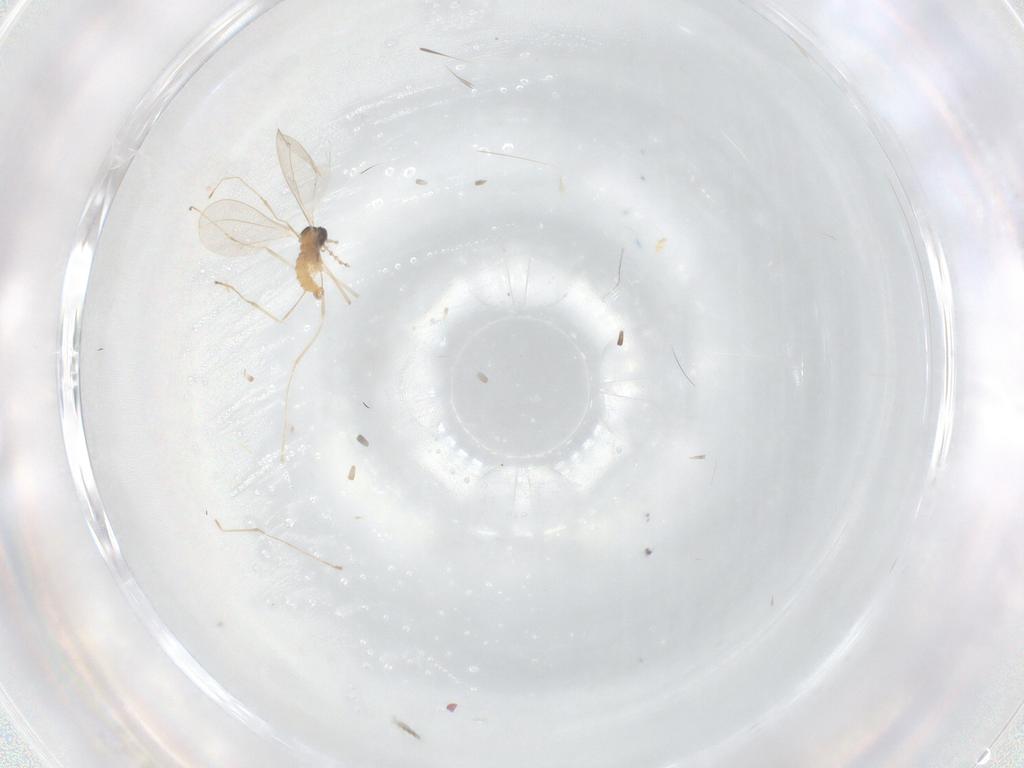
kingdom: Animalia
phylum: Arthropoda
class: Insecta
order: Diptera
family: Cecidomyiidae
